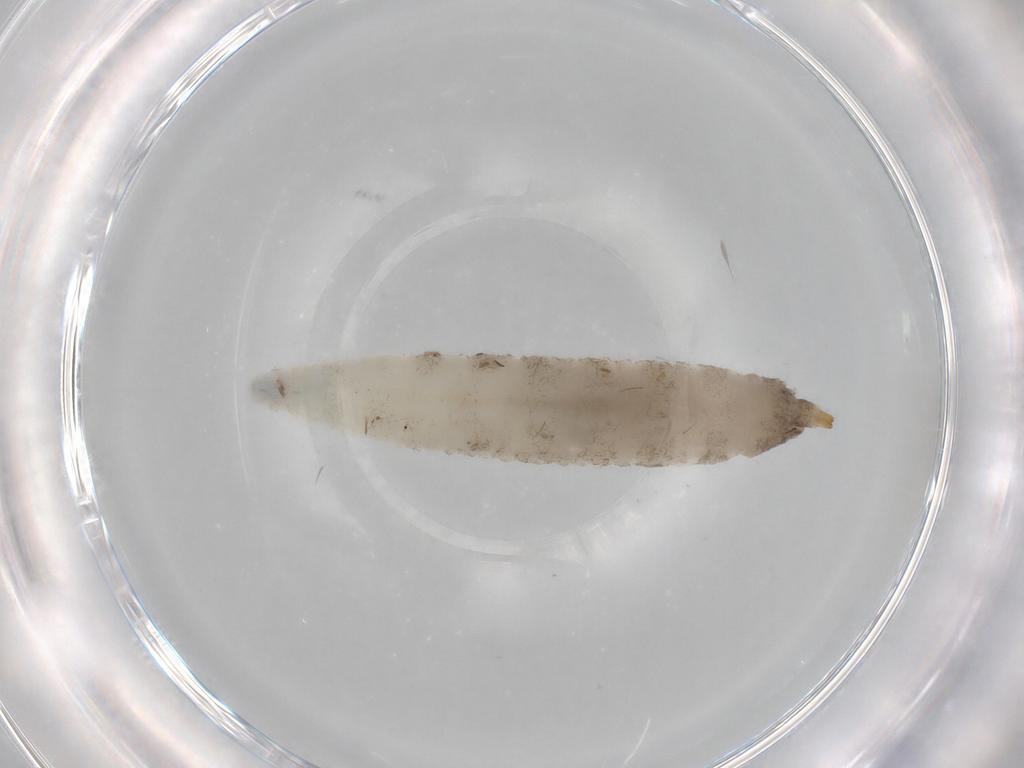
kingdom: Animalia
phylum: Arthropoda
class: Insecta
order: Diptera
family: Drosophilidae
